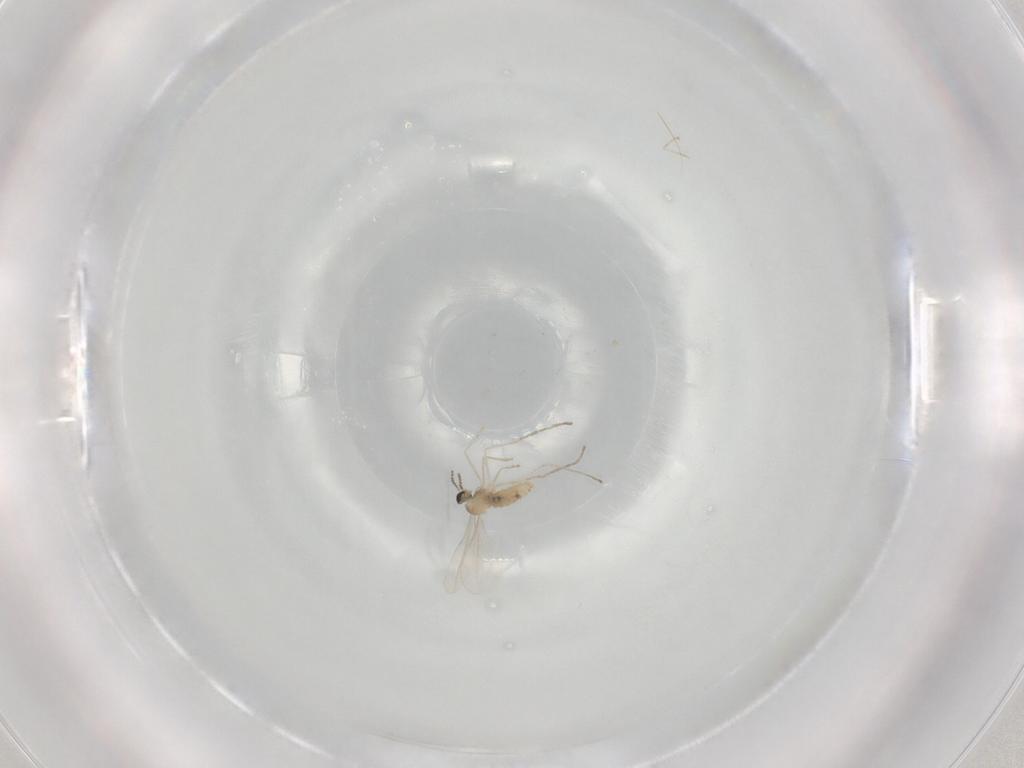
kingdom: Animalia
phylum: Arthropoda
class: Insecta
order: Diptera
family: Cecidomyiidae
